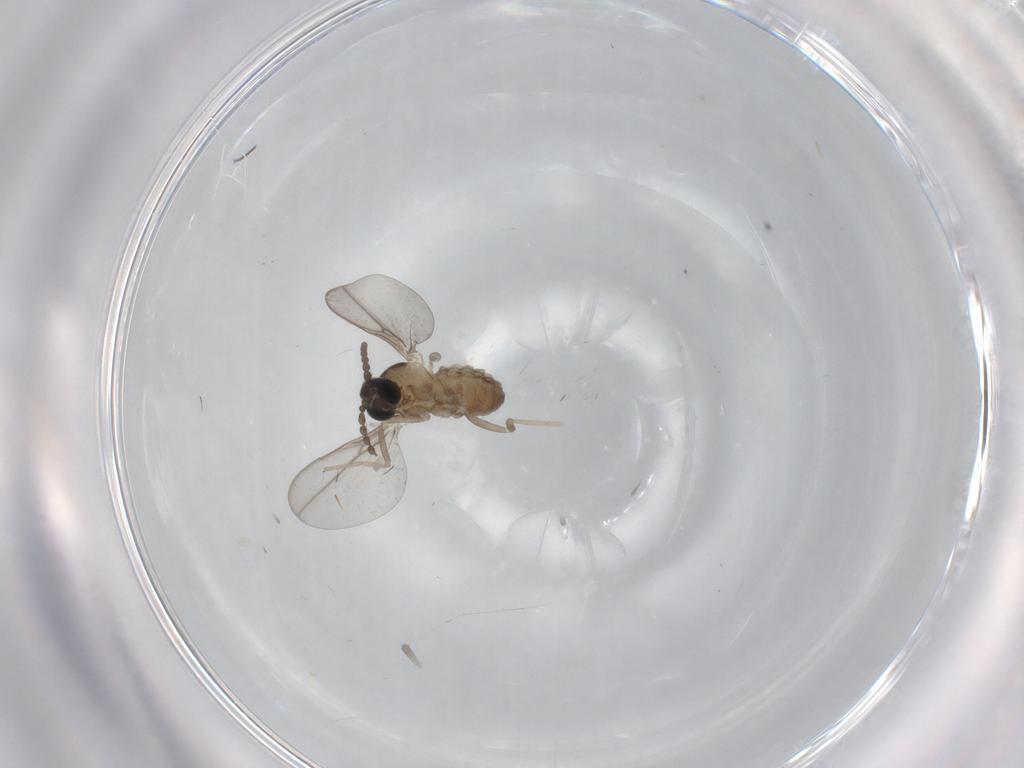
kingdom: Animalia
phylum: Arthropoda
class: Insecta
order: Diptera
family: Cecidomyiidae
